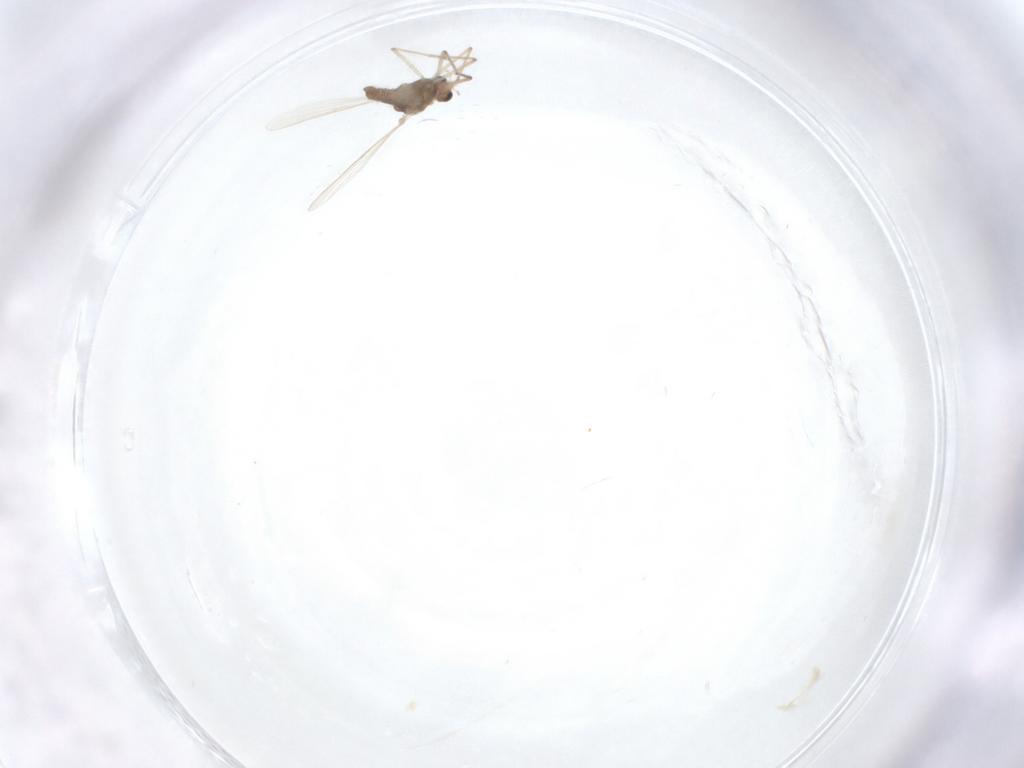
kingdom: Animalia
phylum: Arthropoda
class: Insecta
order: Diptera
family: Chironomidae
